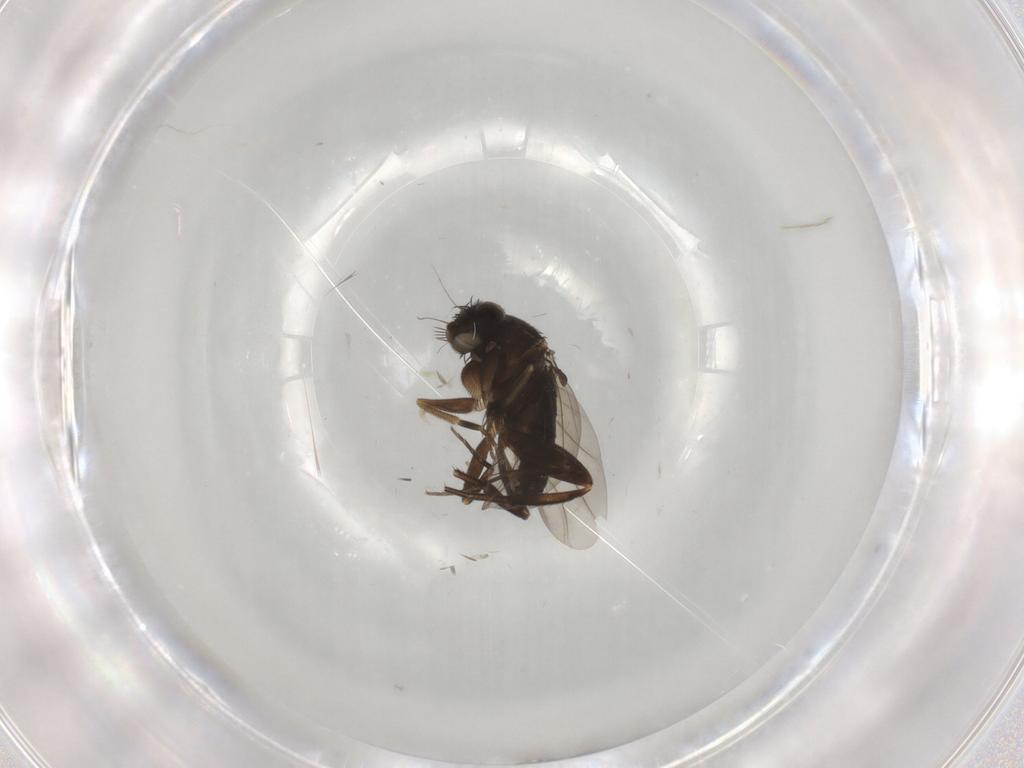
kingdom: Animalia
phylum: Arthropoda
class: Insecta
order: Diptera
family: Phoridae
